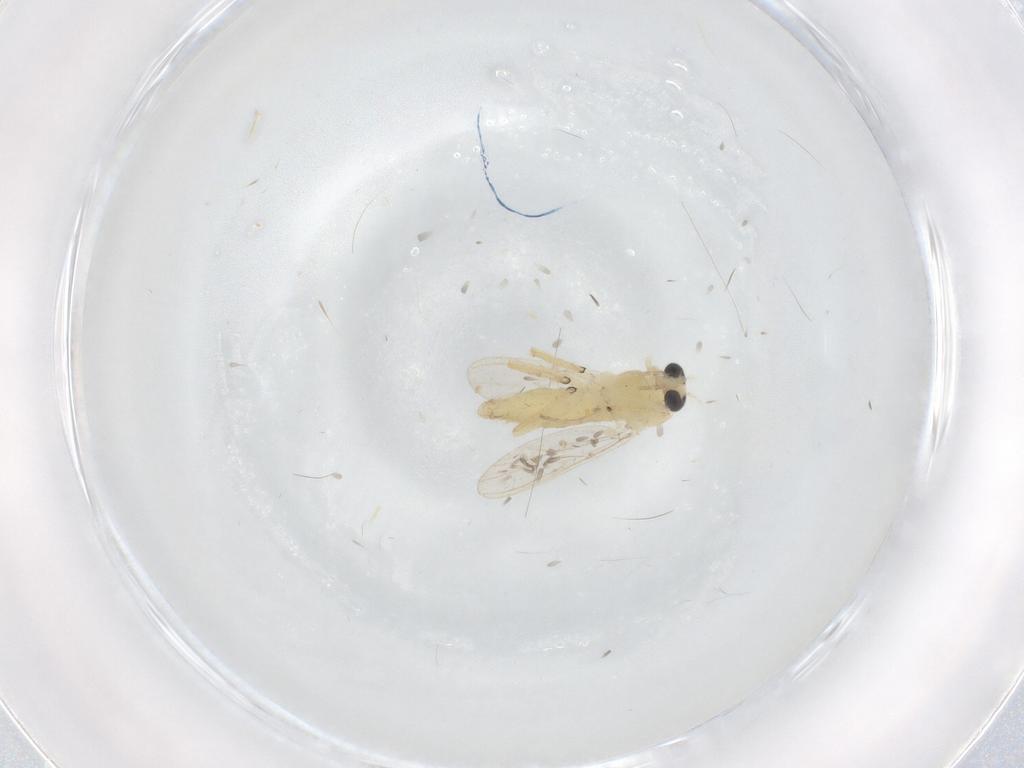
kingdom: Animalia
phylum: Arthropoda
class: Insecta
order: Diptera
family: Chironomidae
